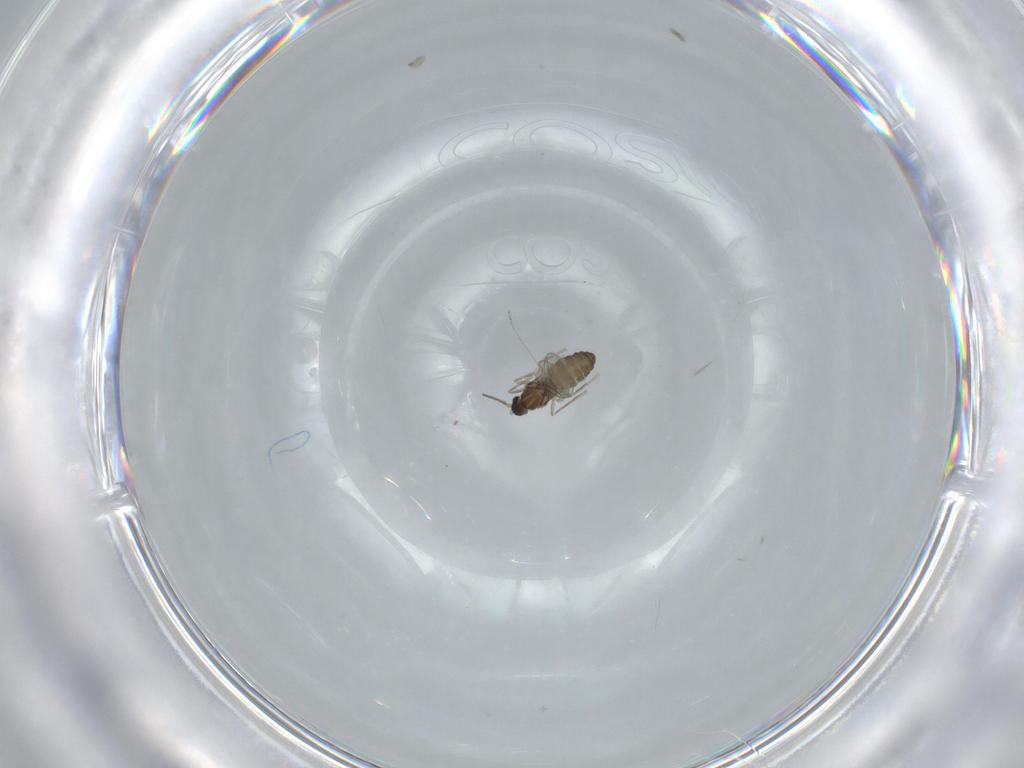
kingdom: Animalia
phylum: Arthropoda
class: Insecta
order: Diptera
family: Cecidomyiidae
